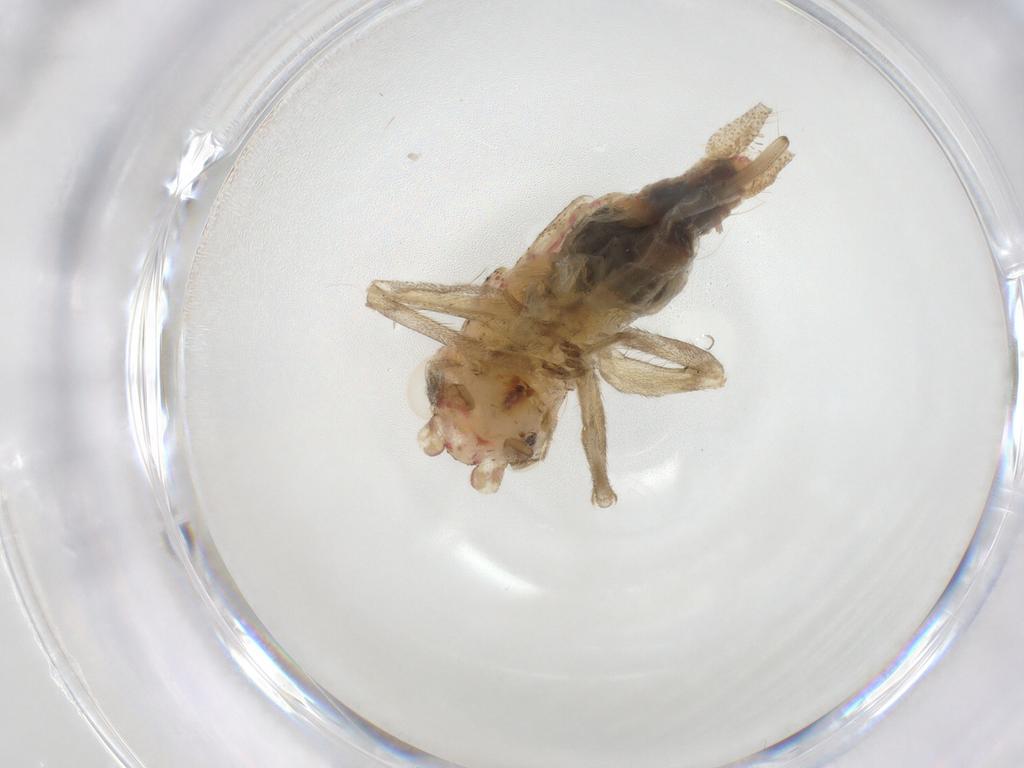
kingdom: Animalia
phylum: Arthropoda
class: Insecta
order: Orthoptera
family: Trigonidiidae
